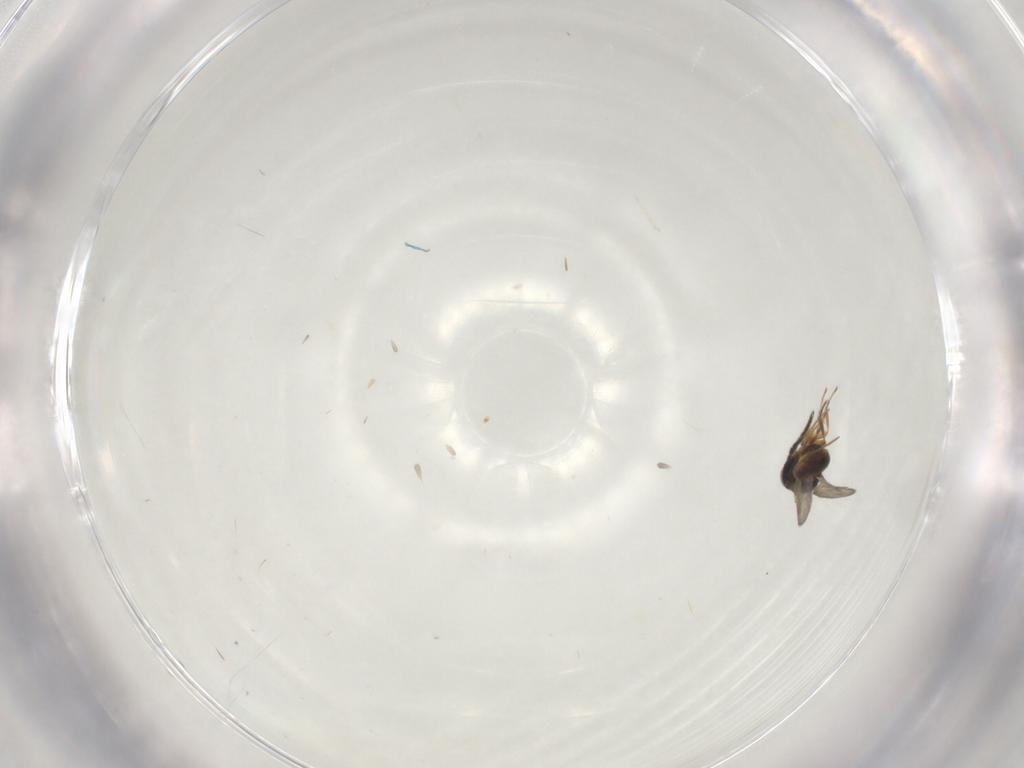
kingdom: Animalia
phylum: Arthropoda
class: Insecta
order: Hymenoptera
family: Scelionidae
